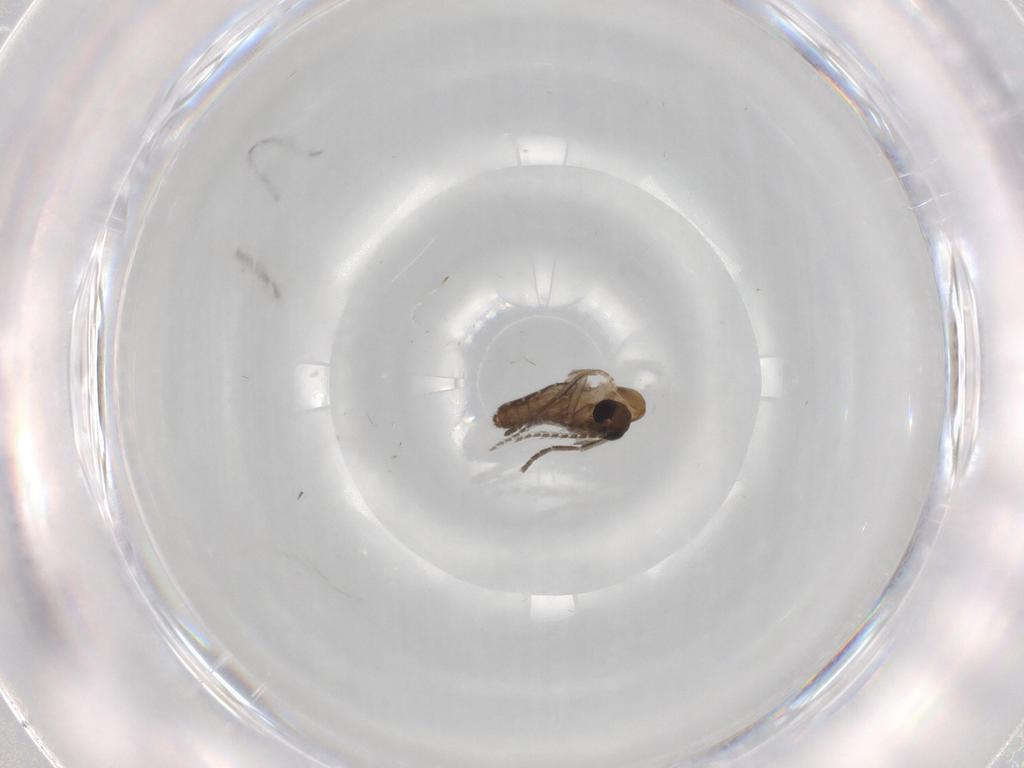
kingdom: Animalia
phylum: Arthropoda
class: Insecta
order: Diptera
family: Psychodidae
